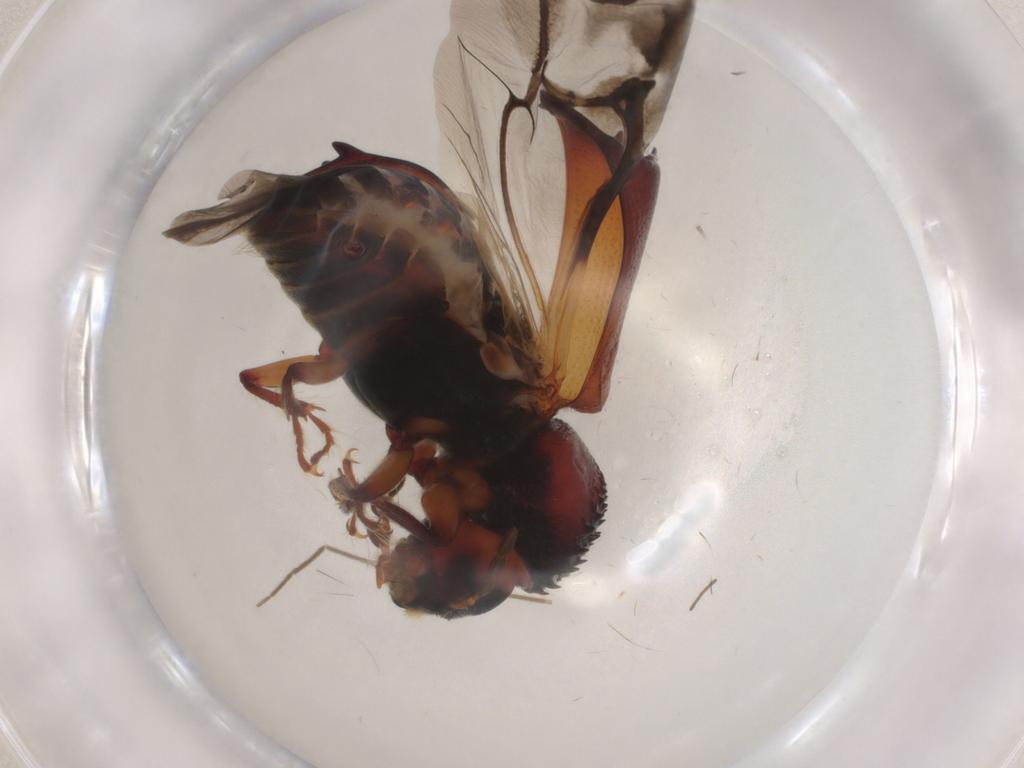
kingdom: Animalia
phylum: Arthropoda
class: Insecta
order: Coleoptera
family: Bostrichidae
